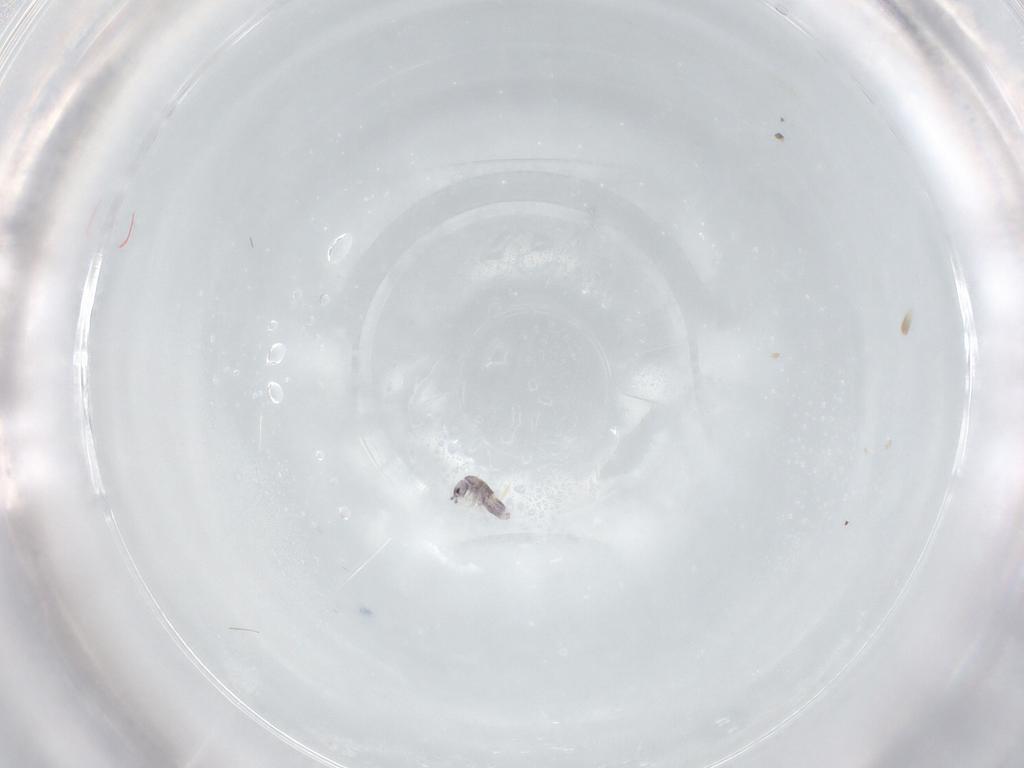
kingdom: Animalia
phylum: Arthropoda
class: Collembola
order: Entomobryomorpha
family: Entomobryidae
